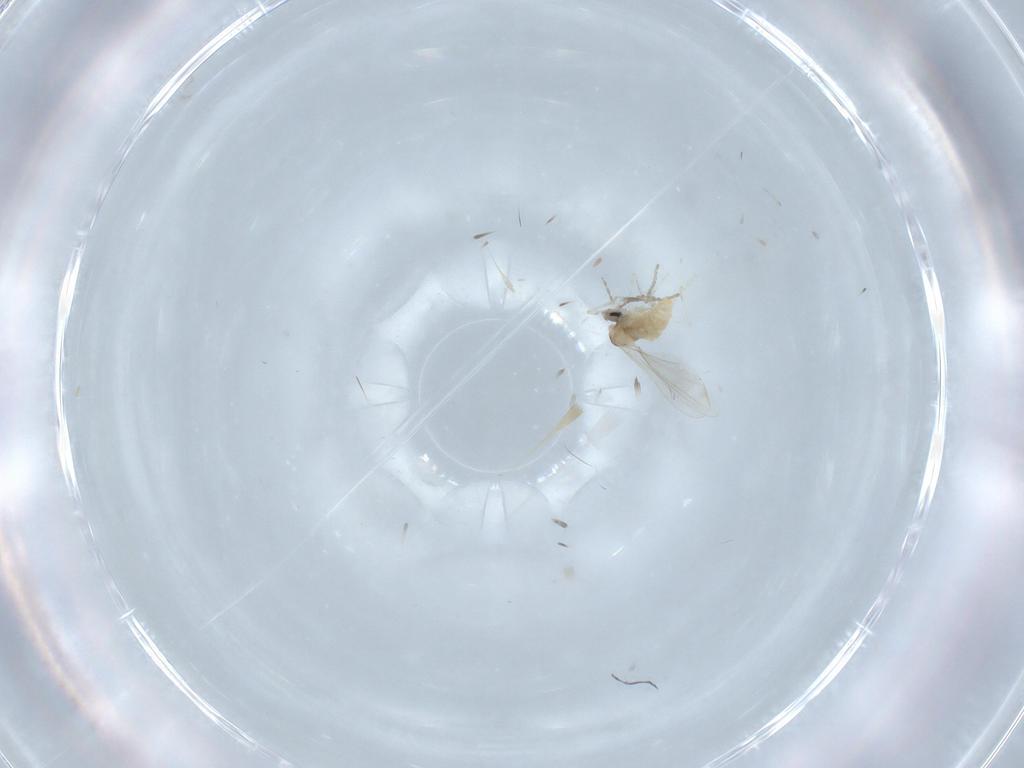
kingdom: Animalia
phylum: Arthropoda
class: Insecta
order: Diptera
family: Cecidomyiidae
